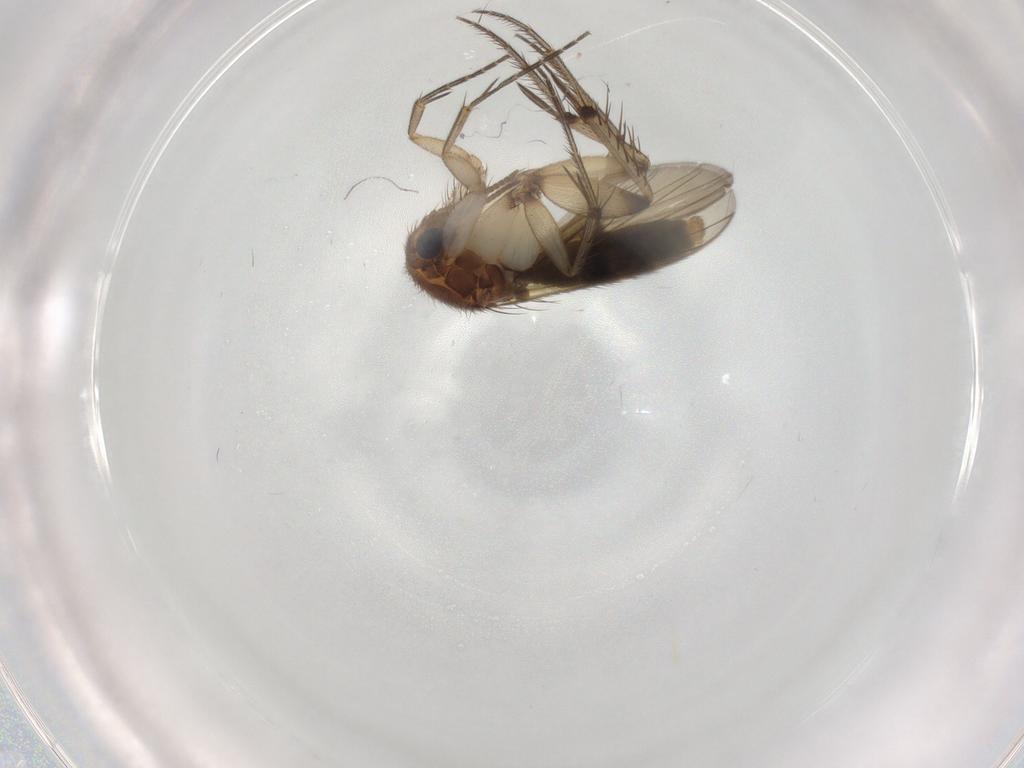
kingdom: Animalia
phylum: Arthropoda
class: Insecta
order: Diptera
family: Mycetophilidae
